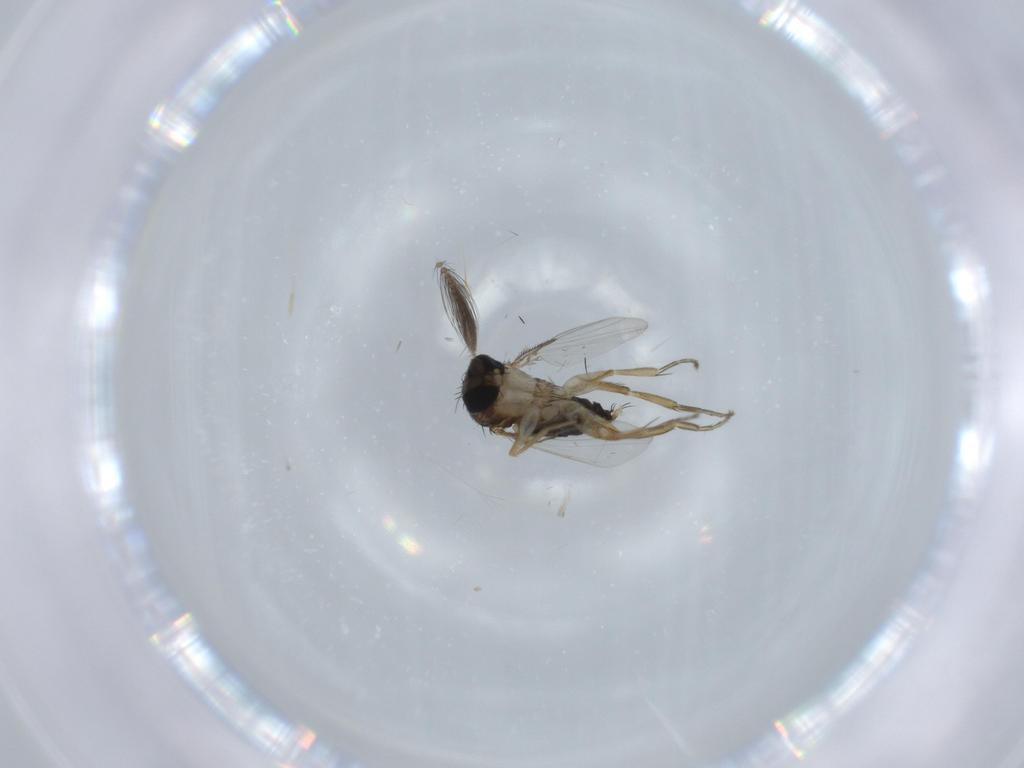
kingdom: Animalia
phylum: Arthropoda
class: Insecta
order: Diptera
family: Phoridae
